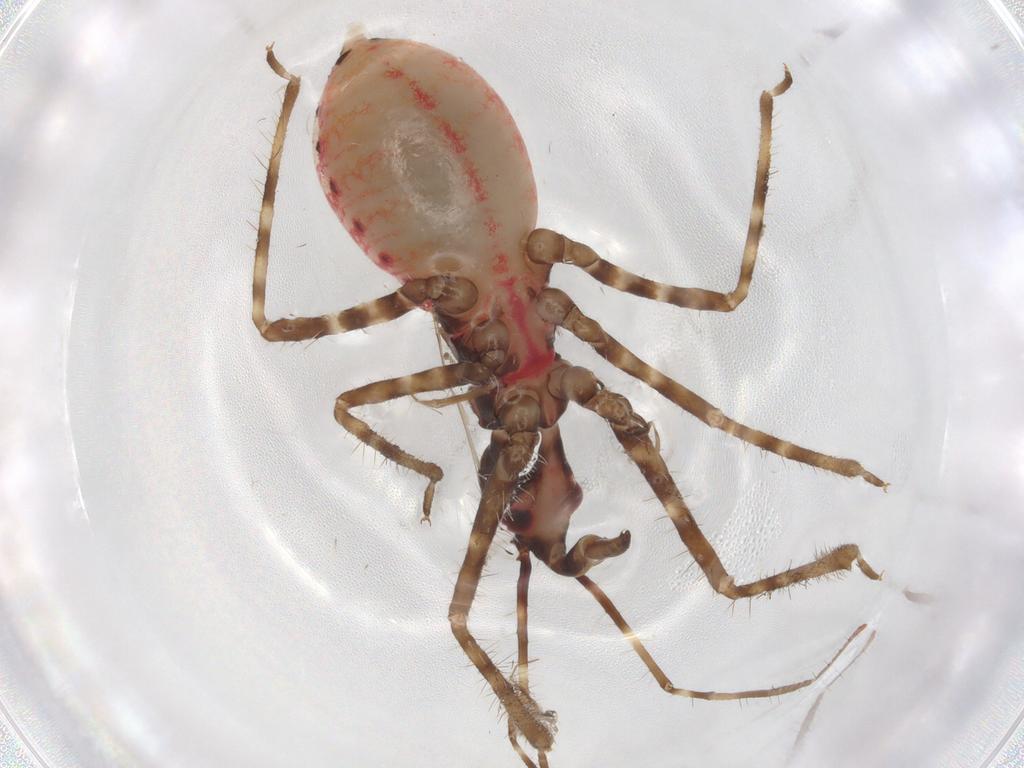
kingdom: Animalia
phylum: Arthropoda
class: Insecta
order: Hemiptera
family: Reduviidae
